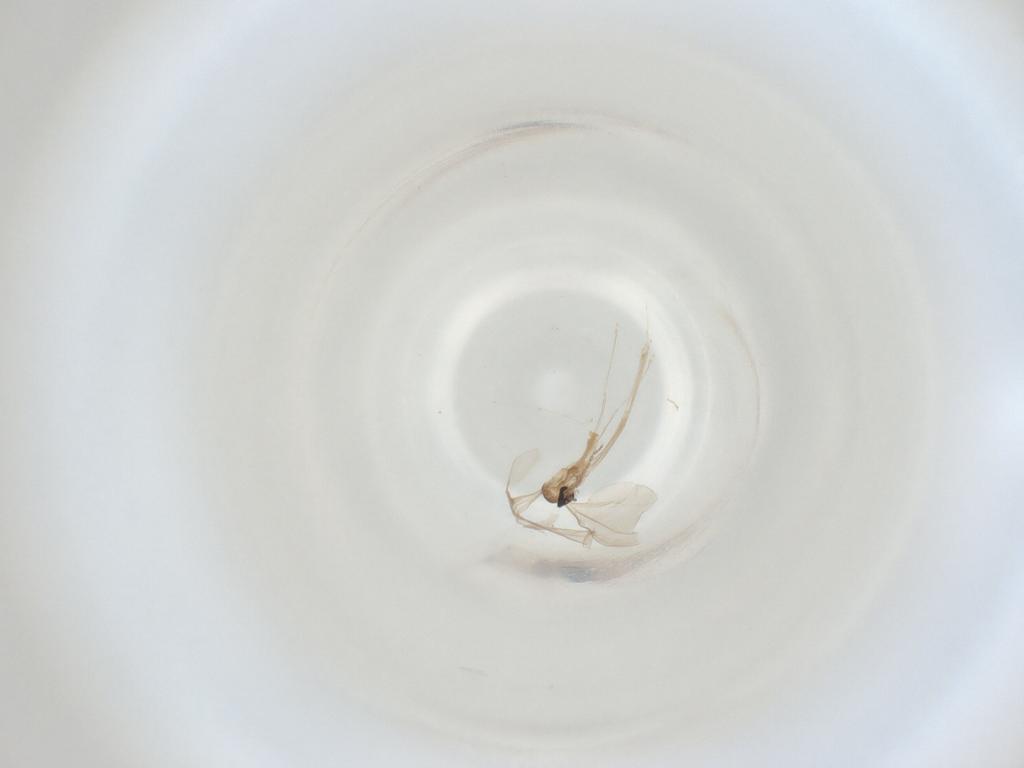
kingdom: Animalia
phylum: Arthropoda
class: Insecta
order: Diptera
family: Cecidomyiidae
